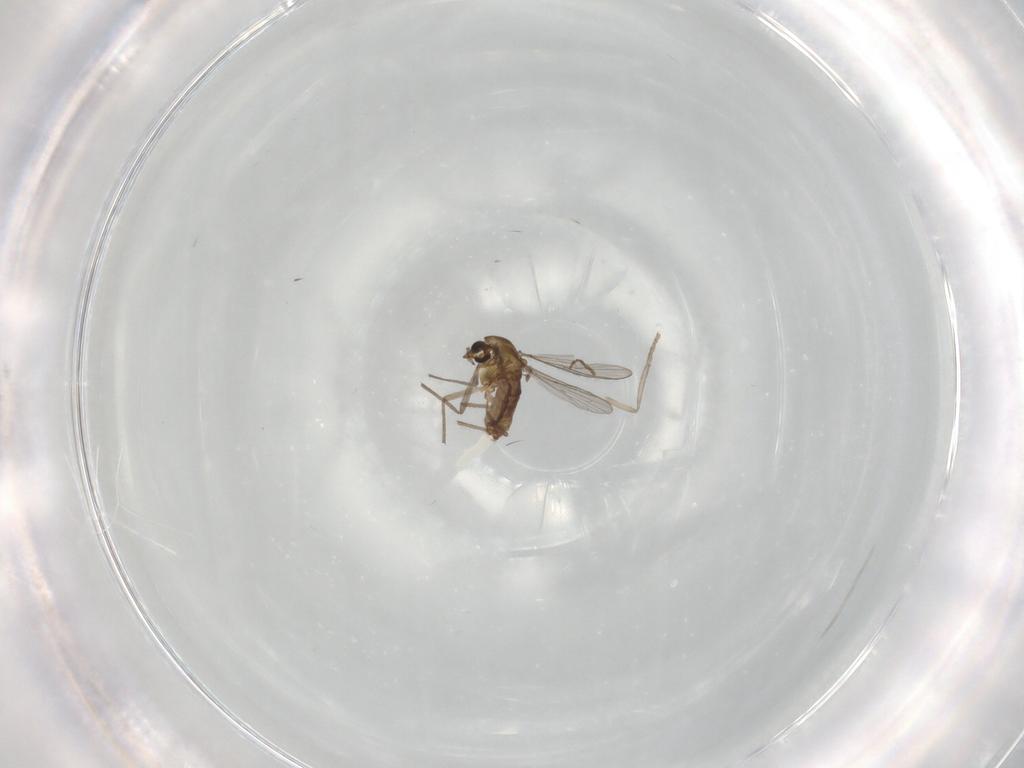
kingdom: Animalia
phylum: Arthropoda
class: Insecta
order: Diptera
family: Chironomidae
